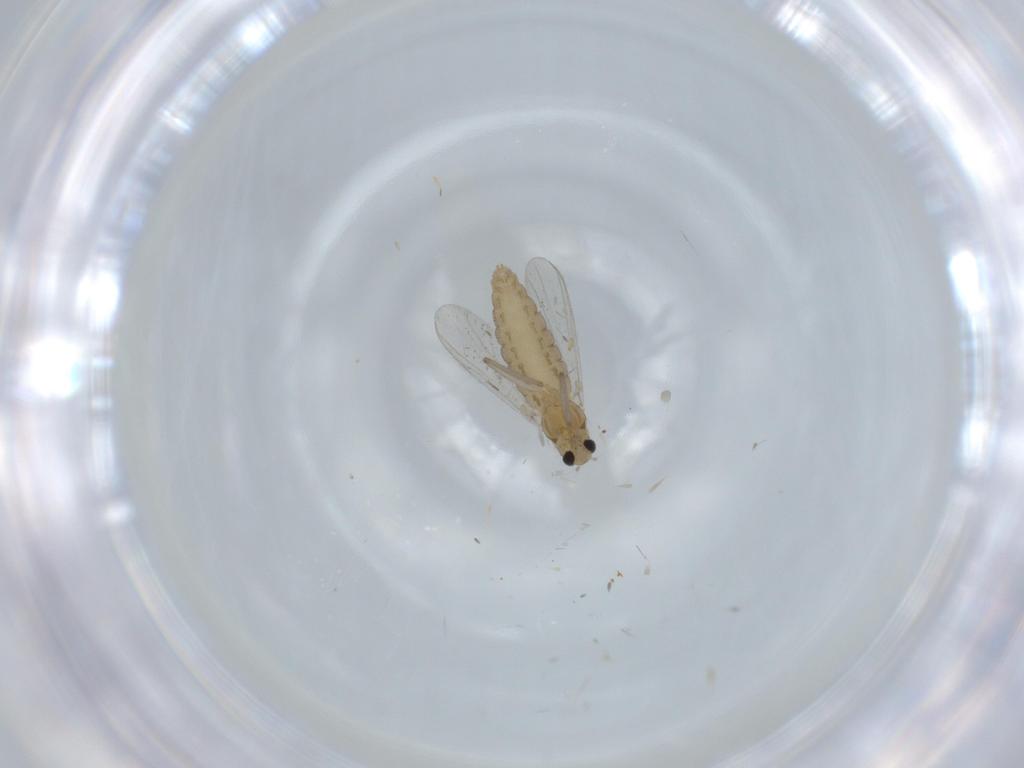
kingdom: Animalia
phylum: Arthropoda
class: Insecta
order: Diptera
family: Chironomidae
